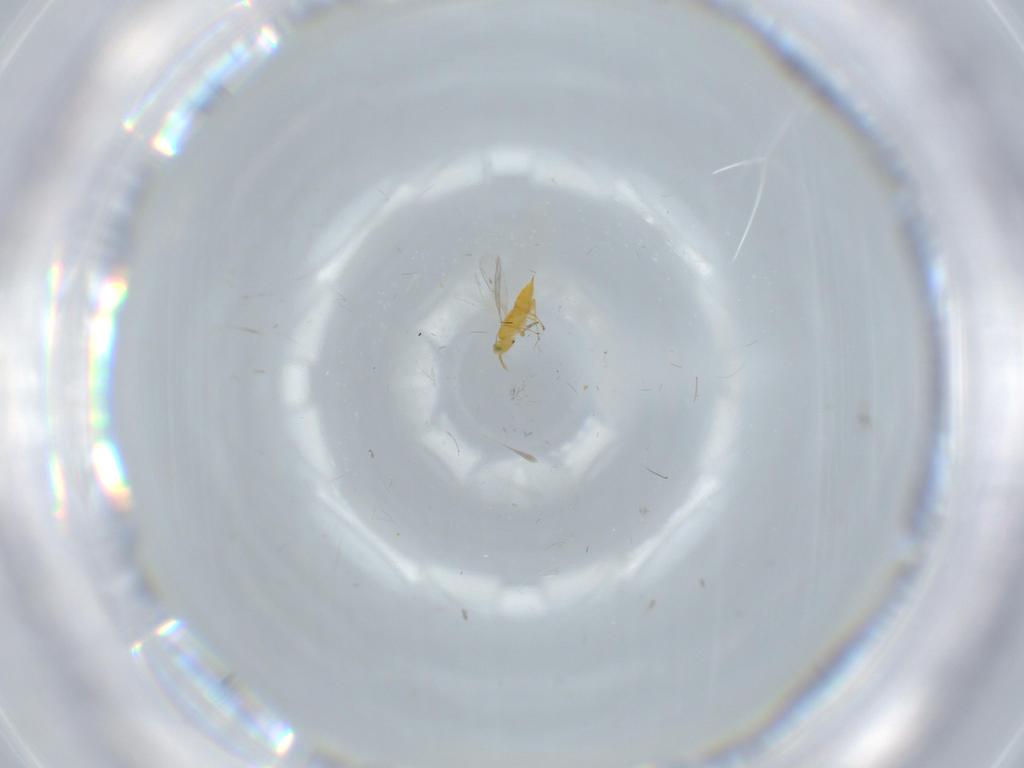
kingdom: Animalia
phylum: Arthropoda
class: Insecta
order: Hymenoptera
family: Aphelinidae
